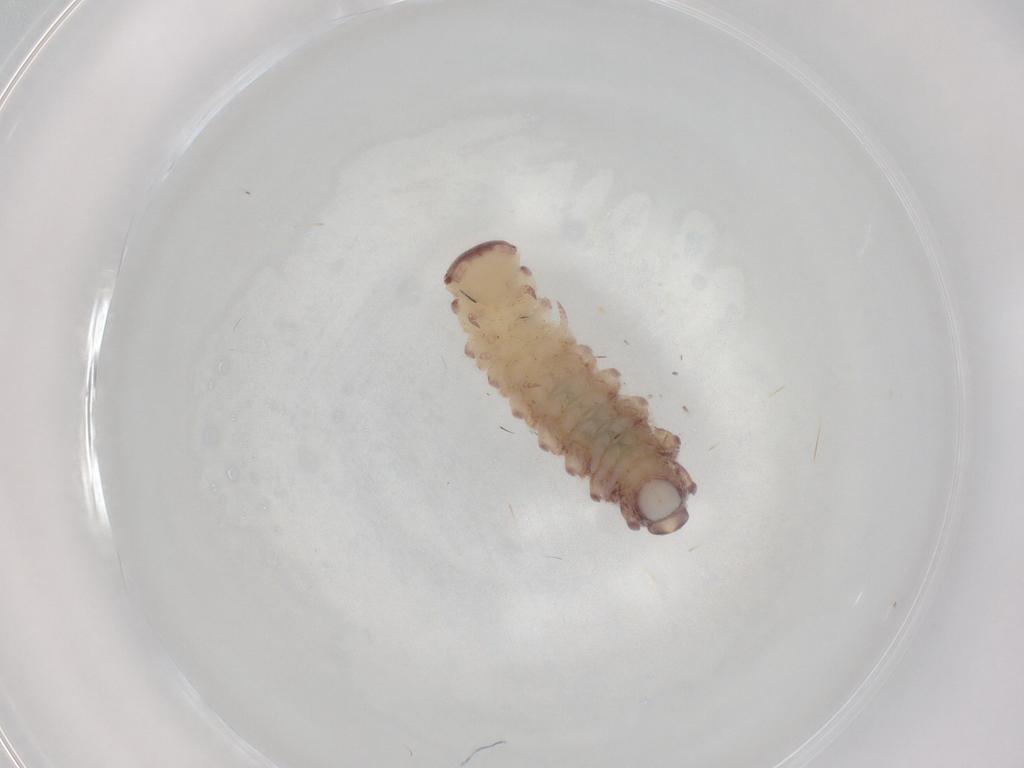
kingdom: Animalia
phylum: Arthropoda
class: Diplopoda
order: Polyxenida
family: Polyxenidae
